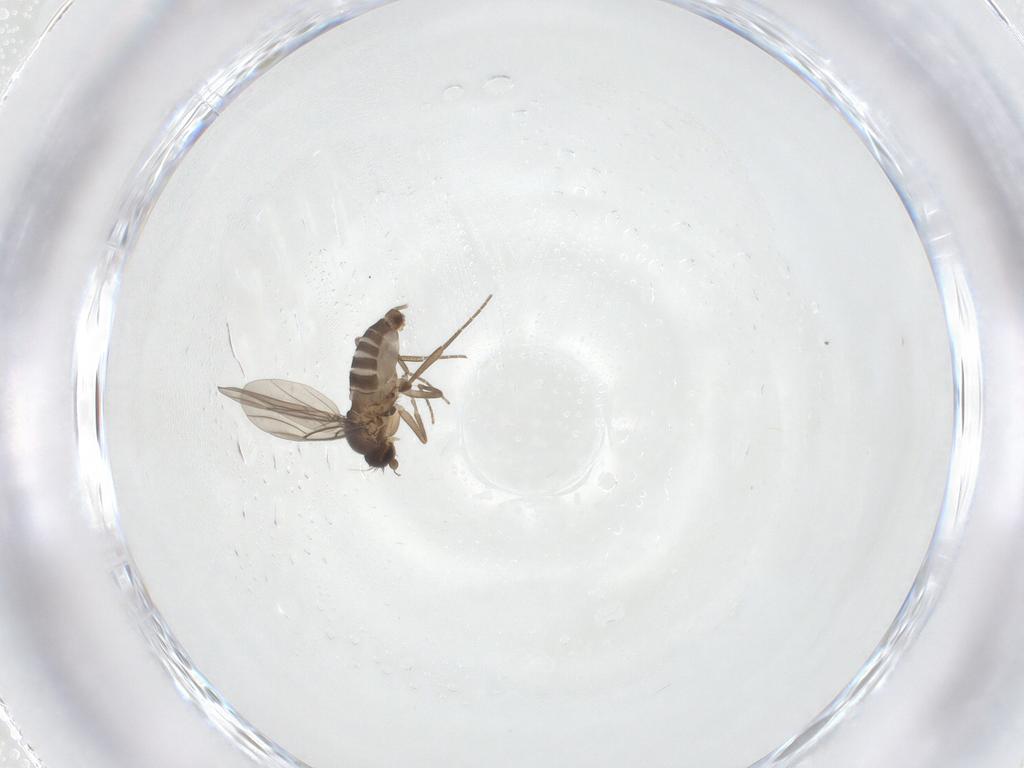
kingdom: Animalia
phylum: Arthropoda
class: Insecta
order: Diptera
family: Phoridae
